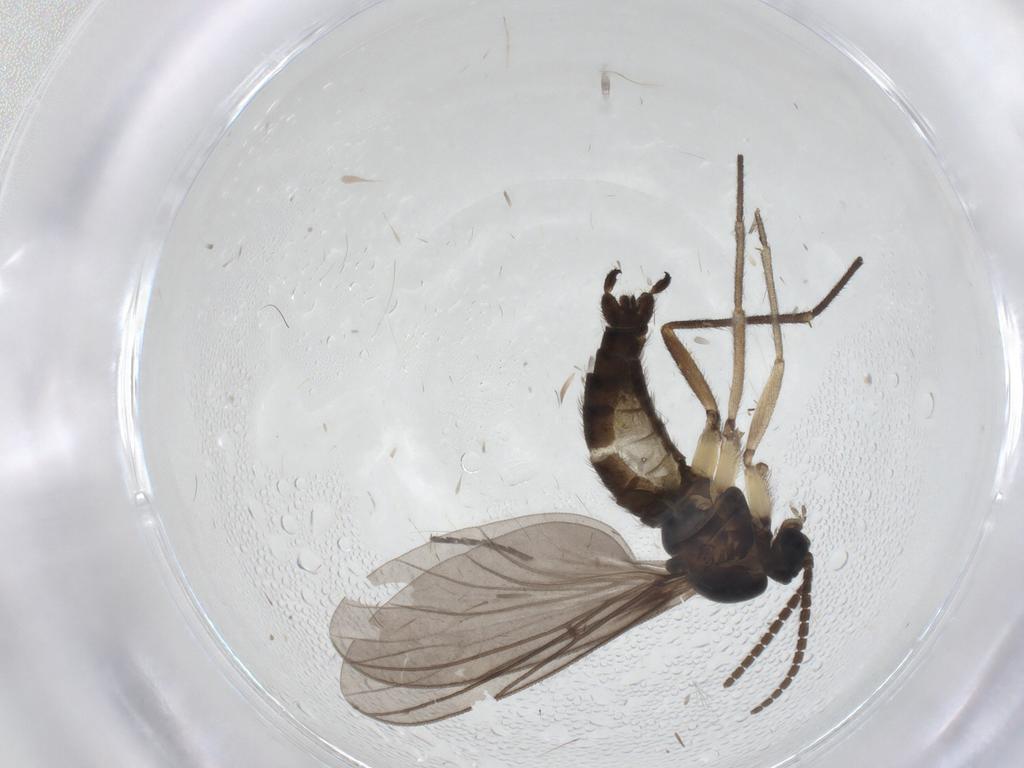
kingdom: Animalia
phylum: Arthropoda
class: Insecta
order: Diptera
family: Sciaridae
